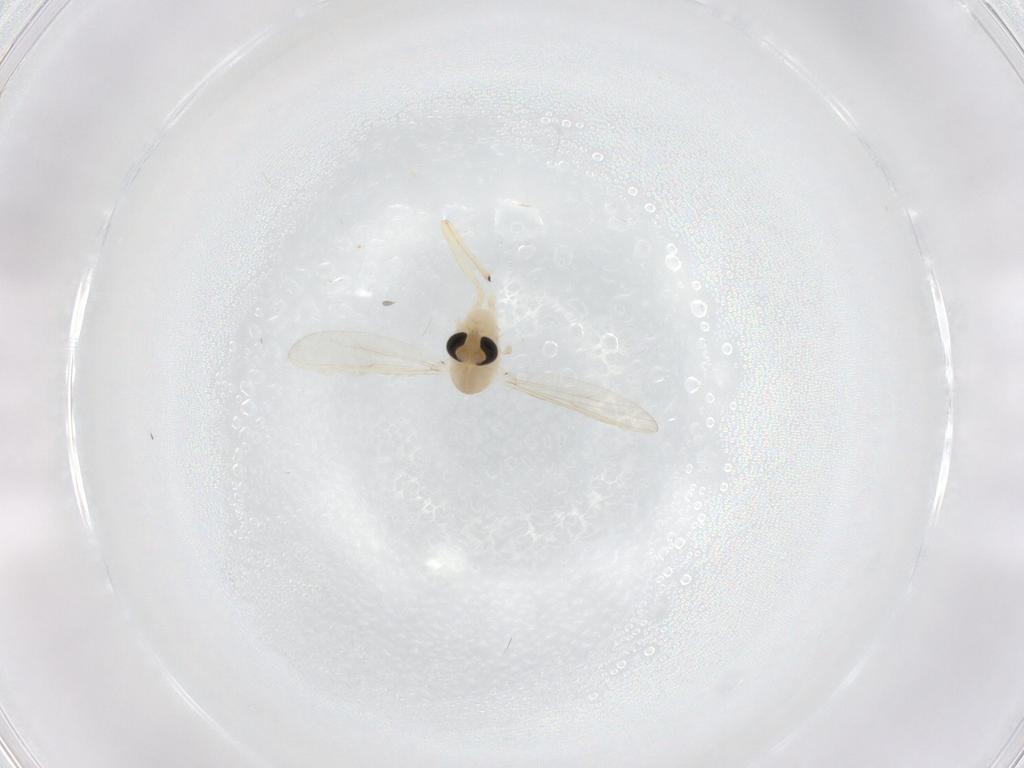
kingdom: Animalia
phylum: Arthropoda
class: Insecta
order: Diptera
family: Chironomidae
